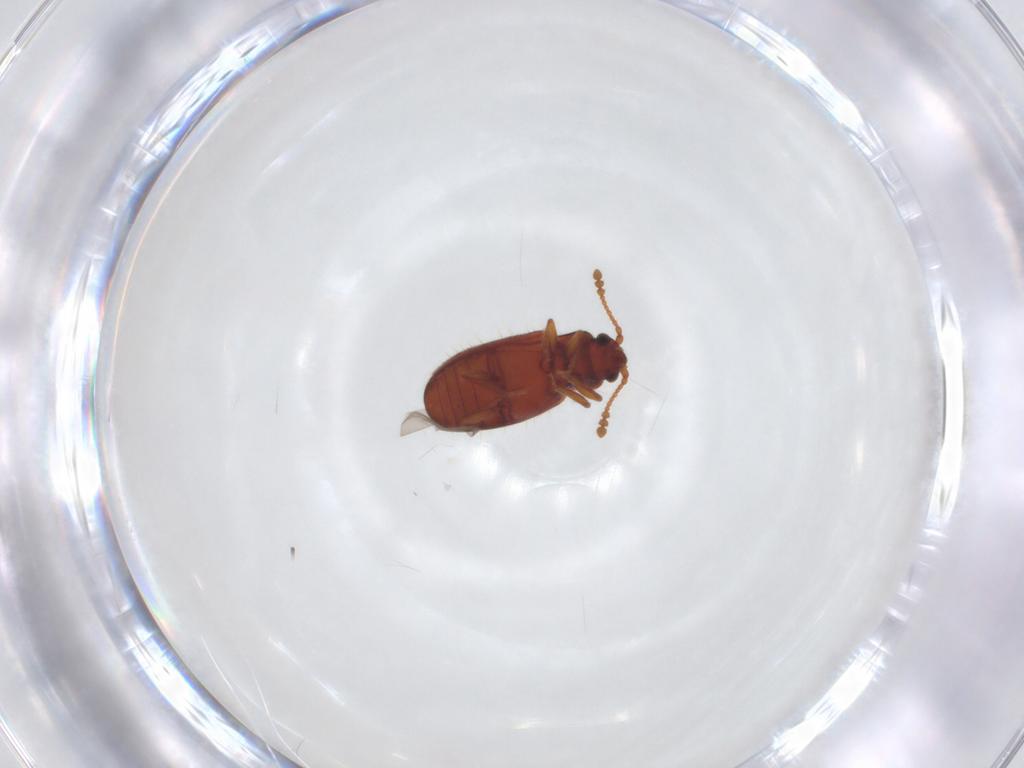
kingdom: Animalia
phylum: Arthropoda
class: Insecta
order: Coleoptera
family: Cryptophagidae
